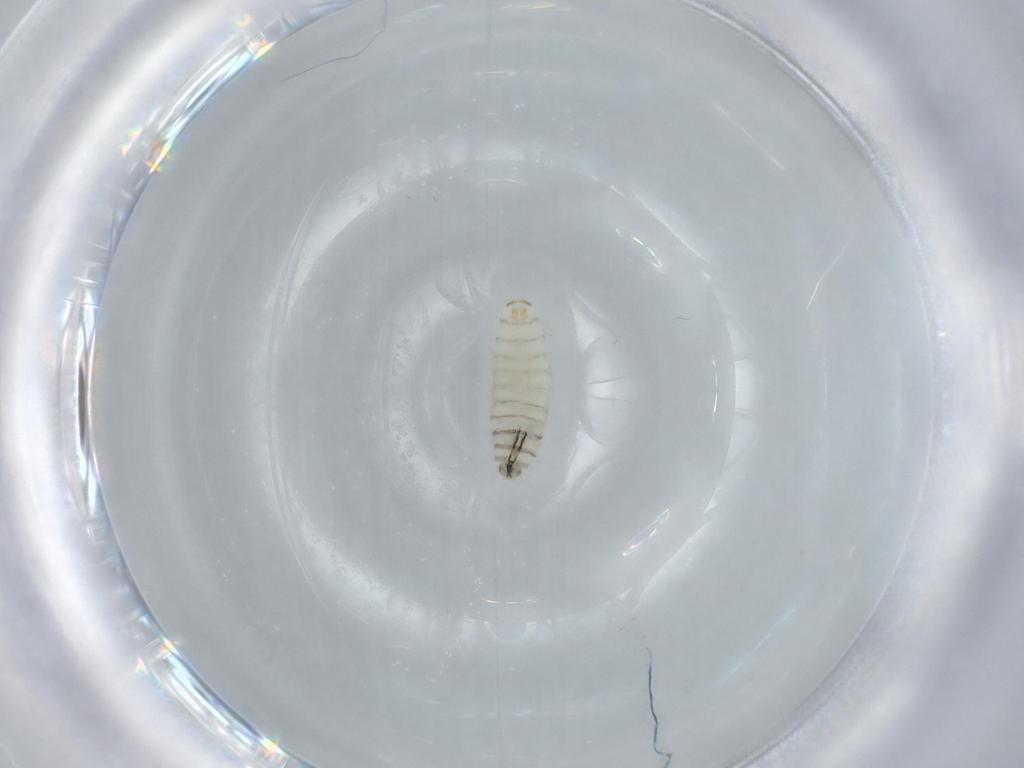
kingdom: Animalia
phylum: Arthropoda
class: Insecta
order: Diptera
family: Sarcophagidae
